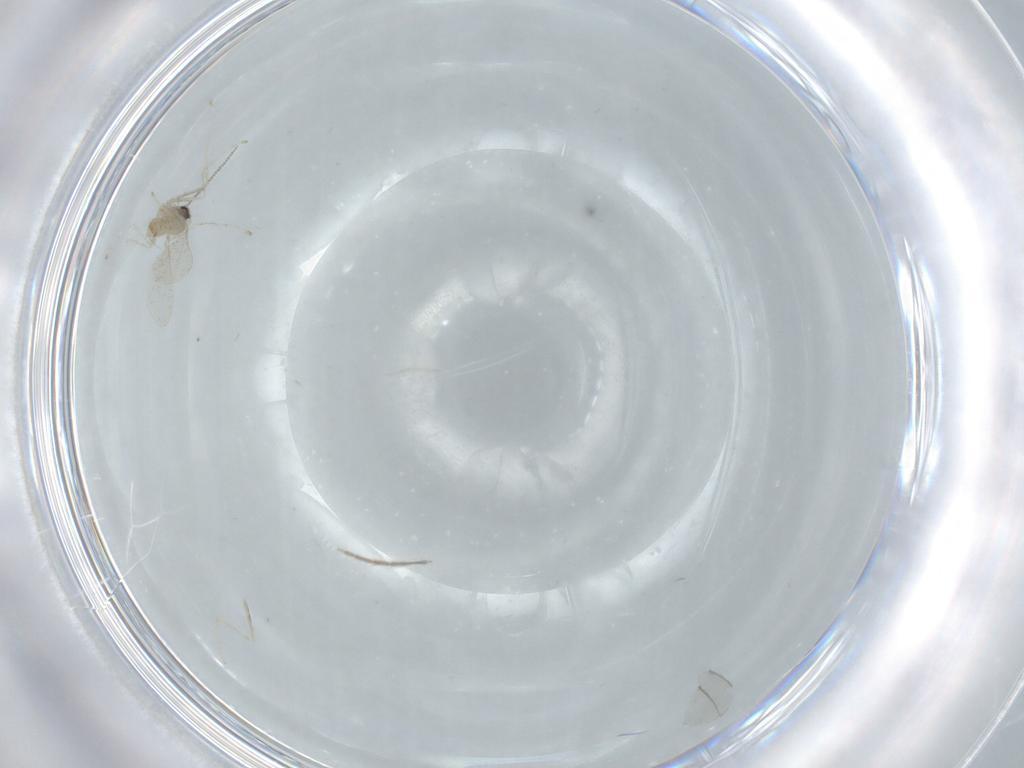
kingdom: Animalia
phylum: Arthropoda
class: Insecta
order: Diptera
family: Cecidomyiidae
